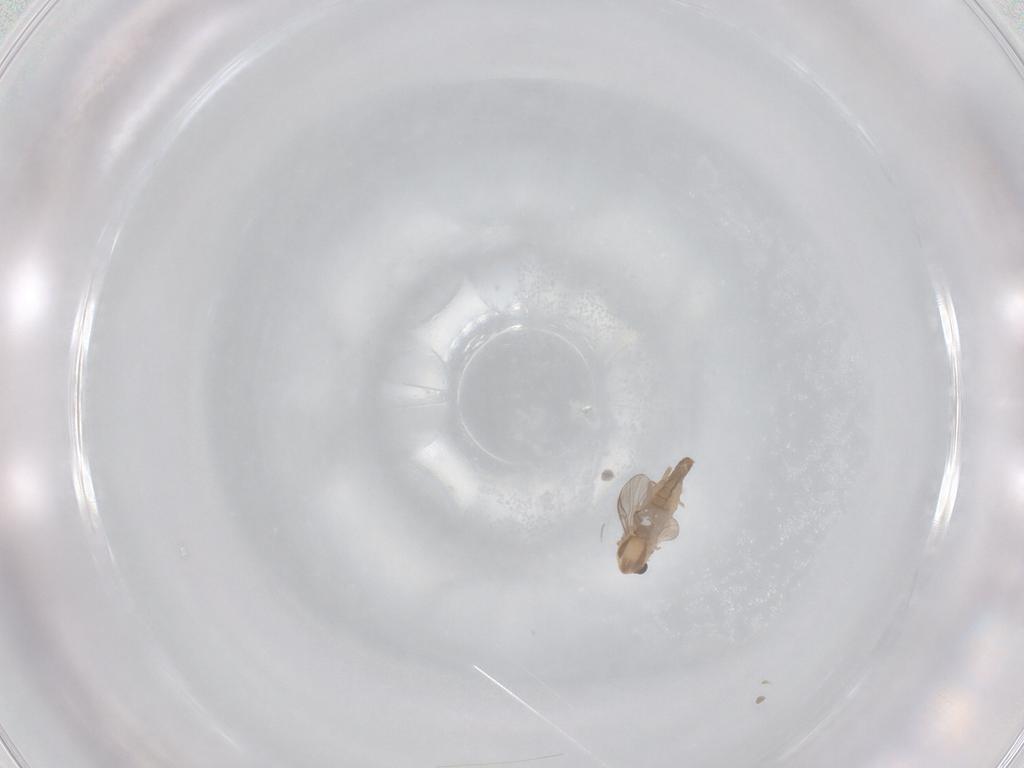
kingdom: Animalia
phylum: Arthropoda
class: Insecta
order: Diptera
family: Chironomidae
